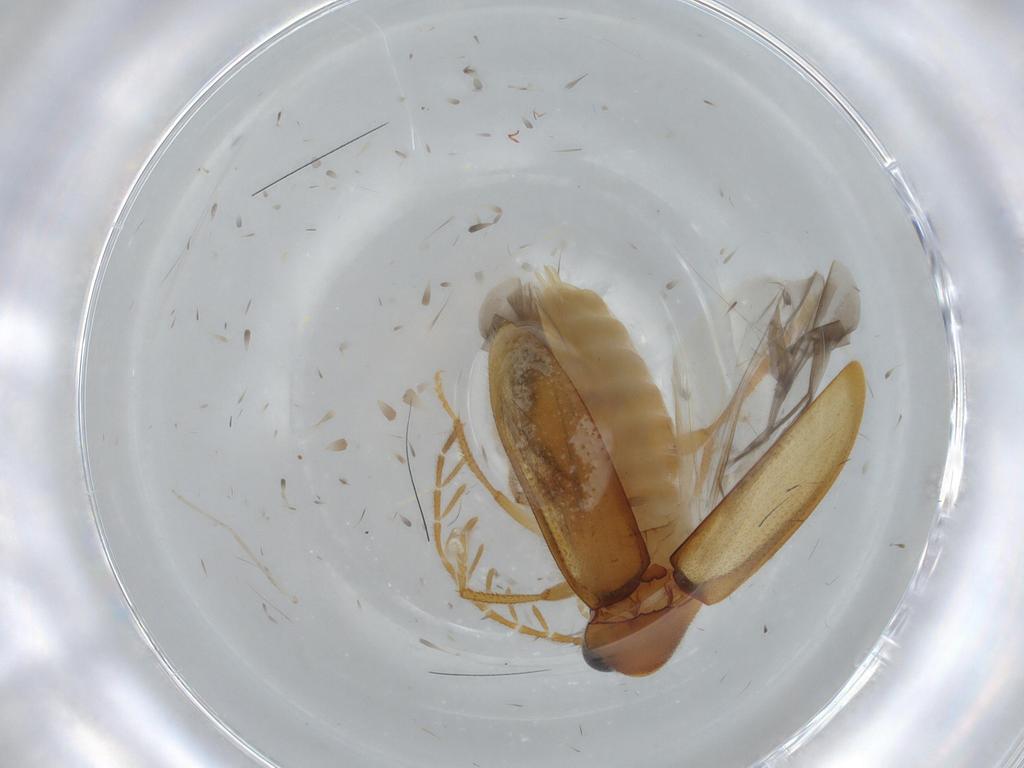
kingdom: Animalia
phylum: Arthropoda
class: Insecta
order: Coleoptera
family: Ptilodactylidae
